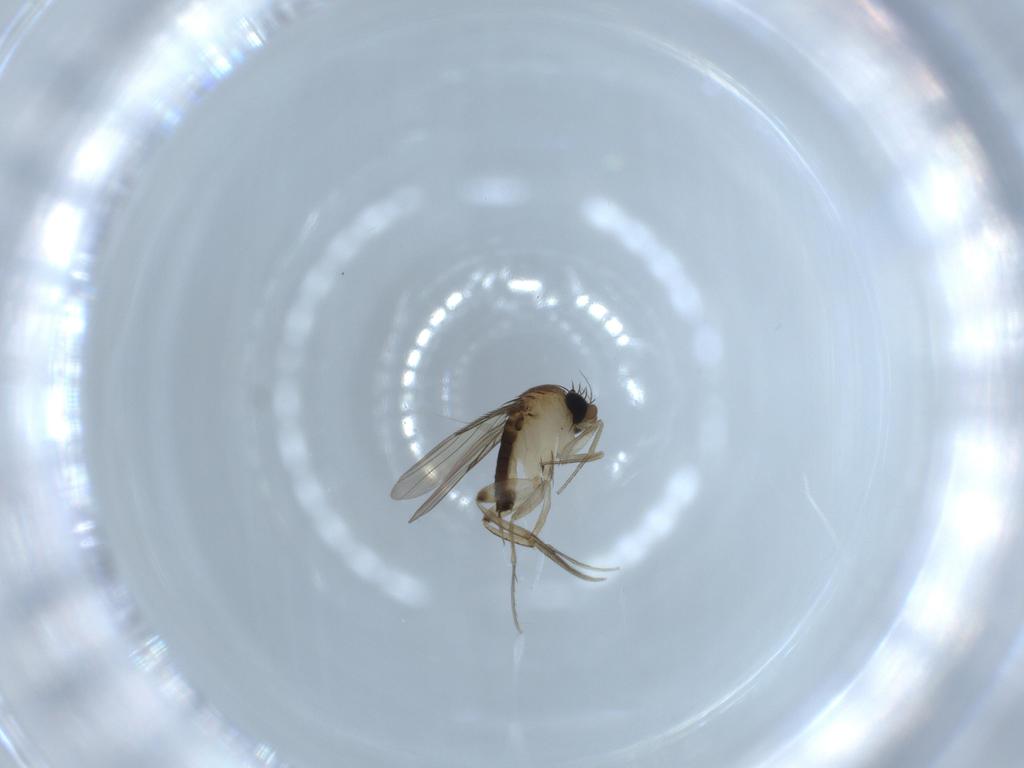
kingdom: Animalia
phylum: Arthropoda
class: Insecta
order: Diptera
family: Phoridae
